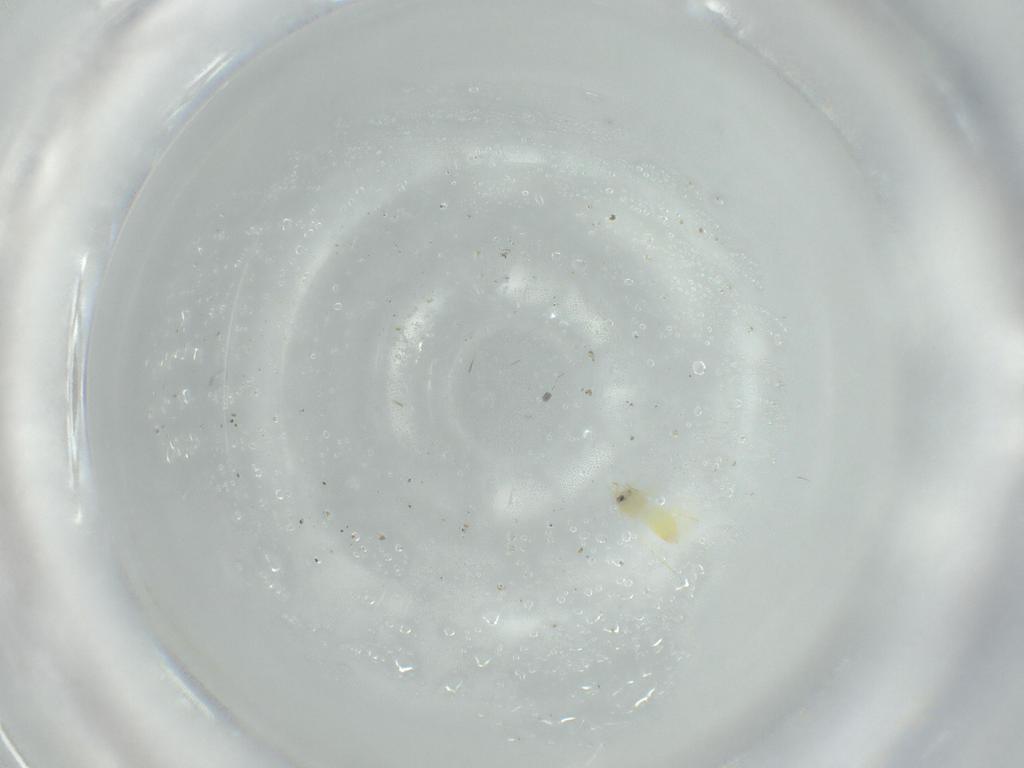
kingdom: Animalia
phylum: Arthropoda
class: Insecta
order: Hemiptera
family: Aleyrodidae
